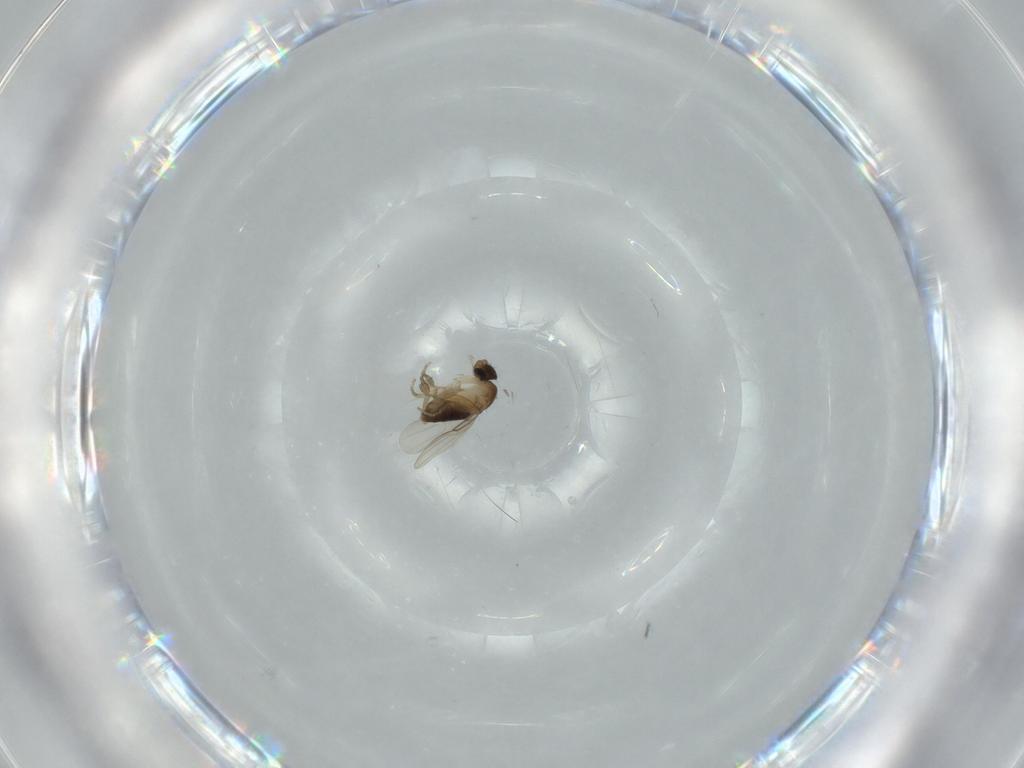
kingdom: Animalia
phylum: Arthropoda
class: Insecta
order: Diptera
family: Phoridae
